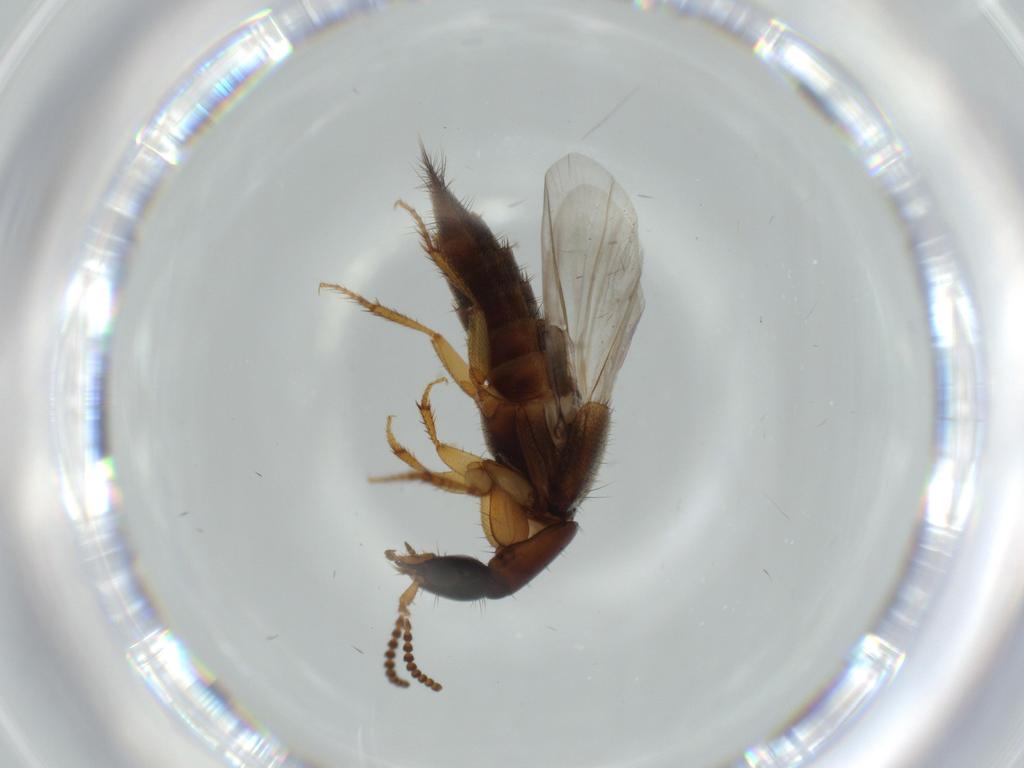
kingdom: Animalia
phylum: Arthropoda
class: Insecta
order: Coleoptera
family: Staphylinidae
